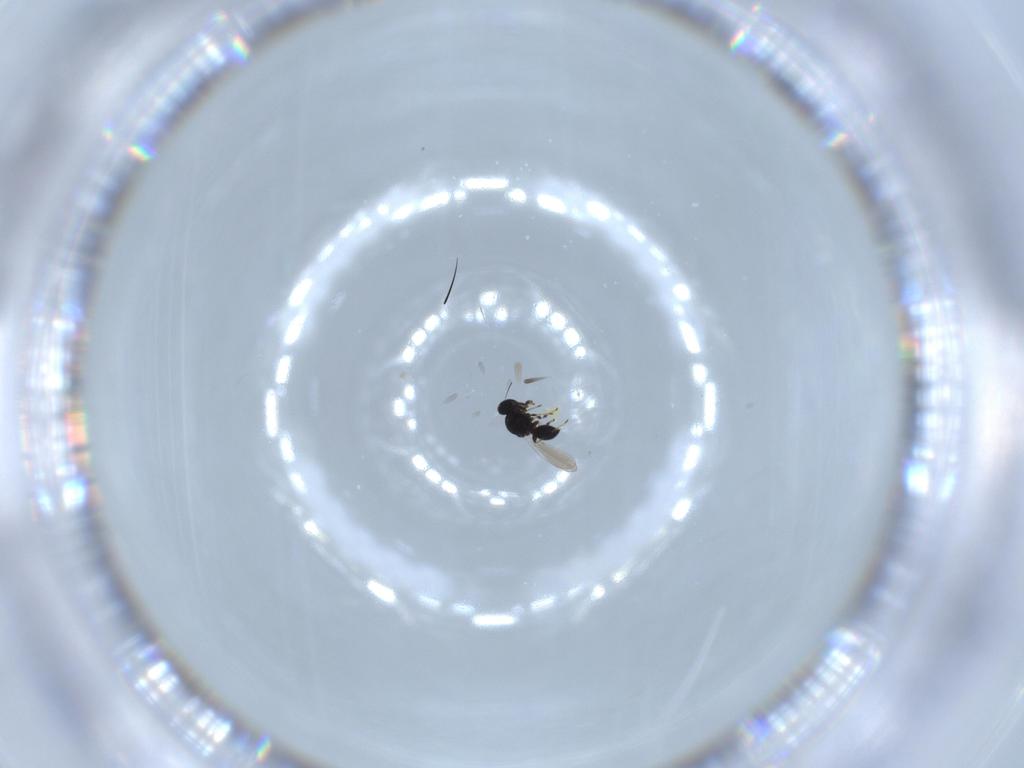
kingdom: Animalia
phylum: Arthropoda
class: Insecta
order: Hymenoptera
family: Platygastridae
